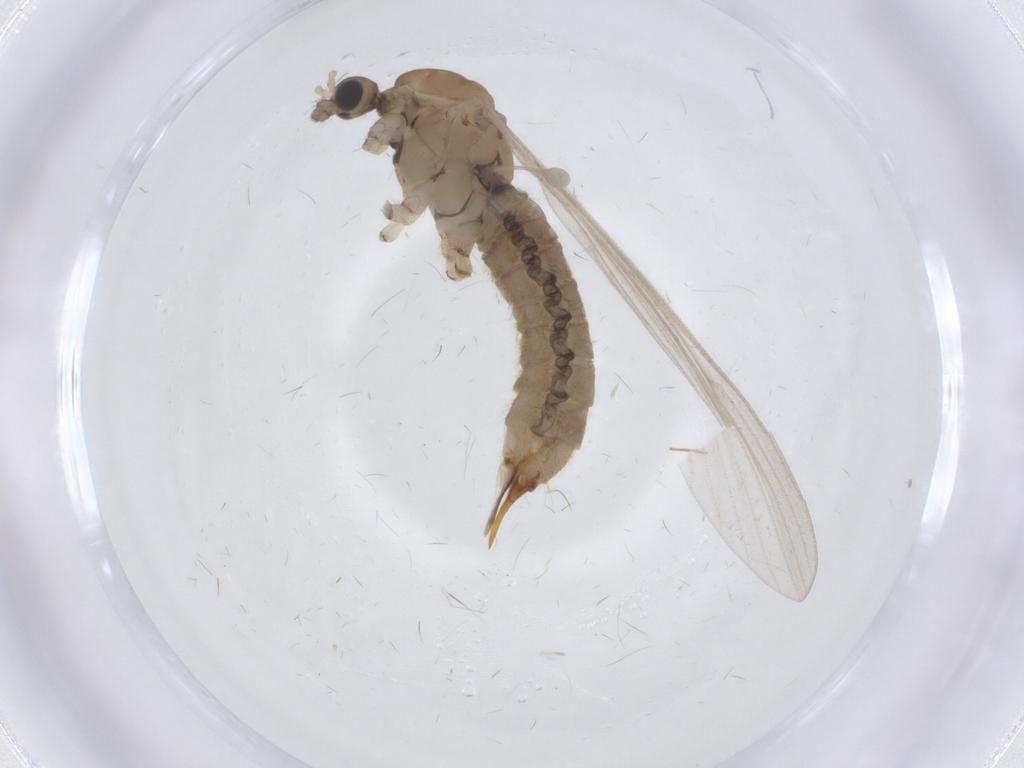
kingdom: Animalia
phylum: Arthropoda
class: Insecta
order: Diptera
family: Limoniidae
